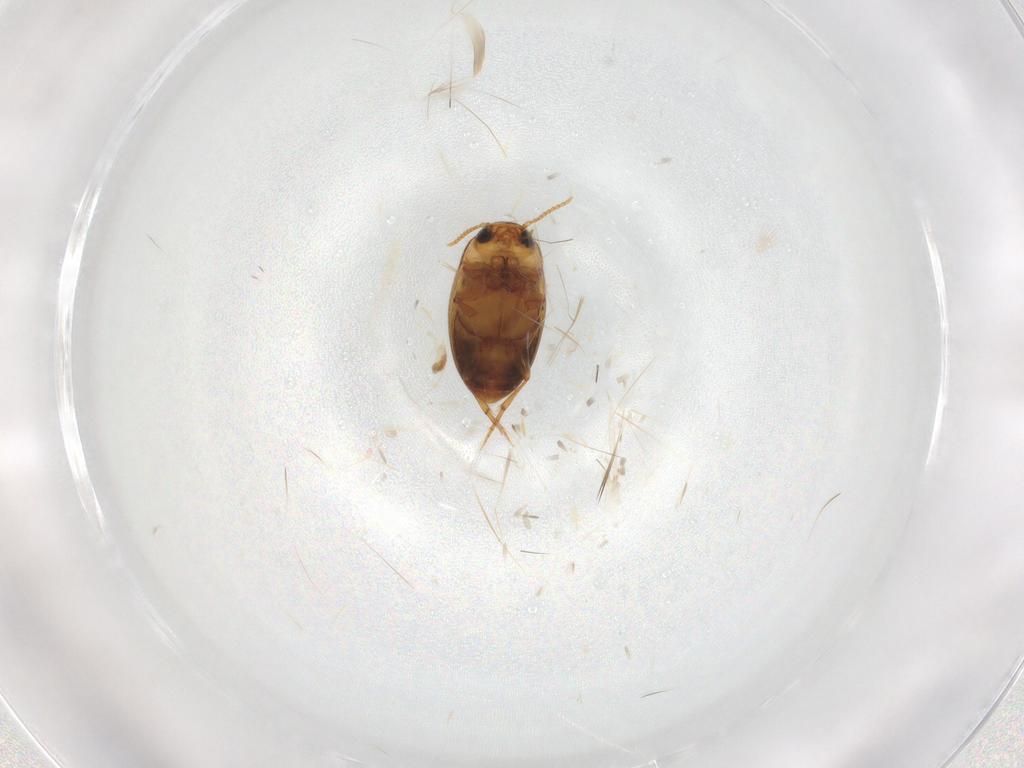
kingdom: Animalia
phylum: Arthropoda
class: Insecta
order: Coleoptera
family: Dytiscidae
